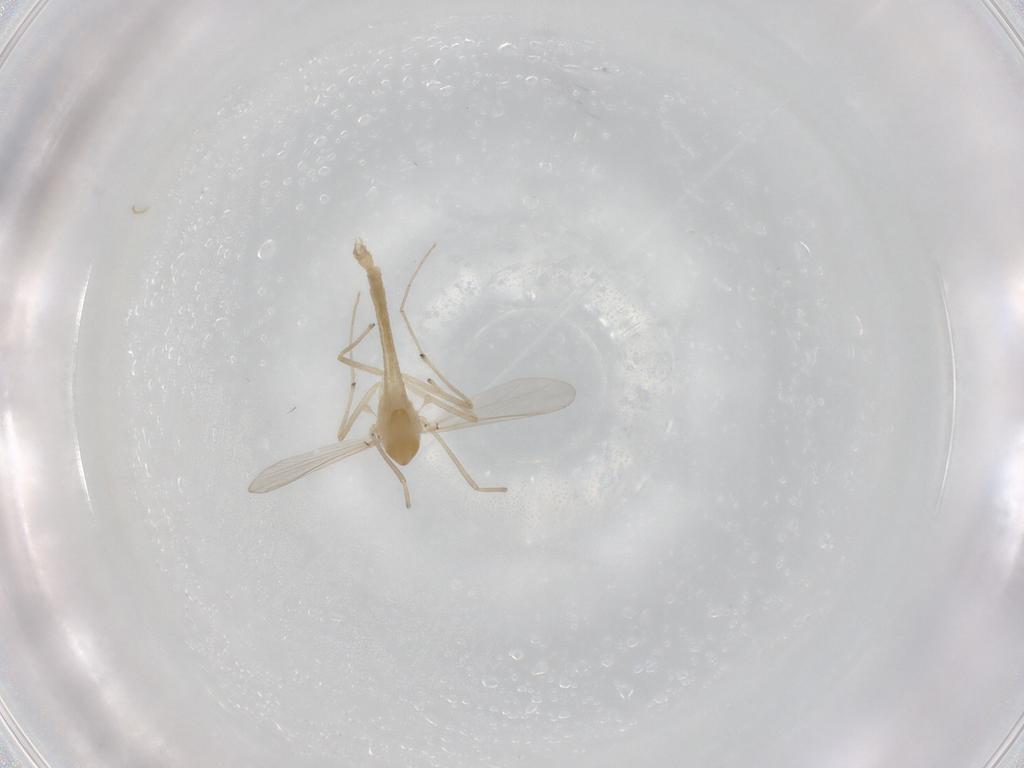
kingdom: Animalia
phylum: Arthropoda
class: Insecta
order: Diptera
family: Chironomidae
